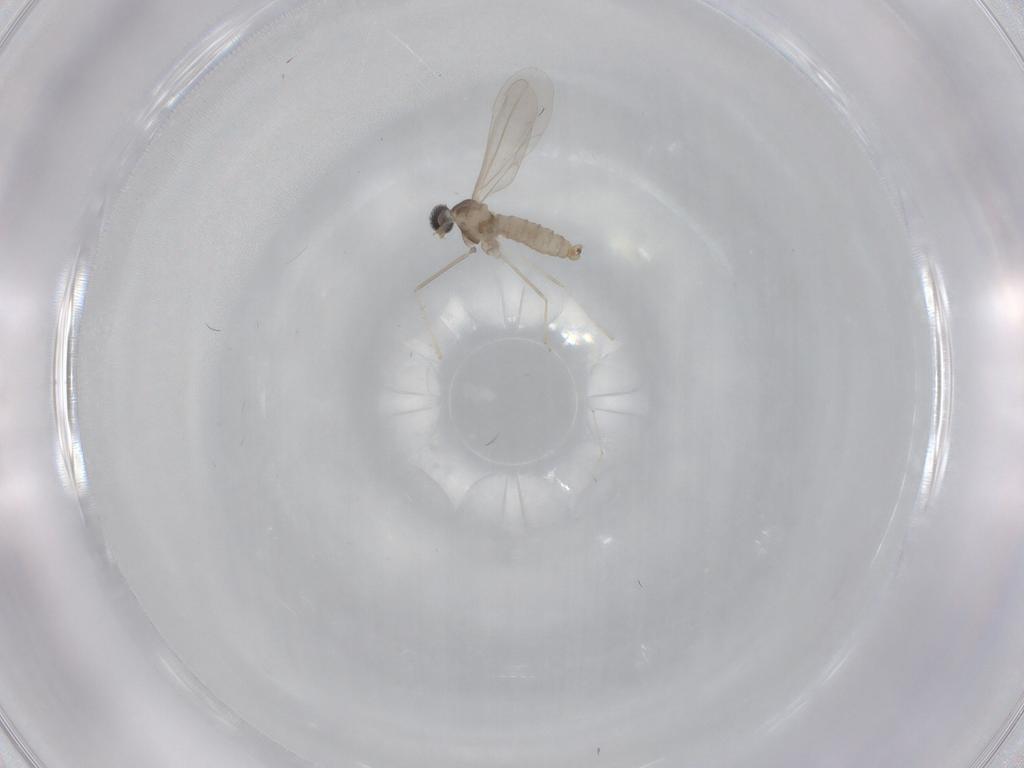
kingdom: Animalia
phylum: Arthropoda
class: Insecta
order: Diptera
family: Cecidomyiidae
